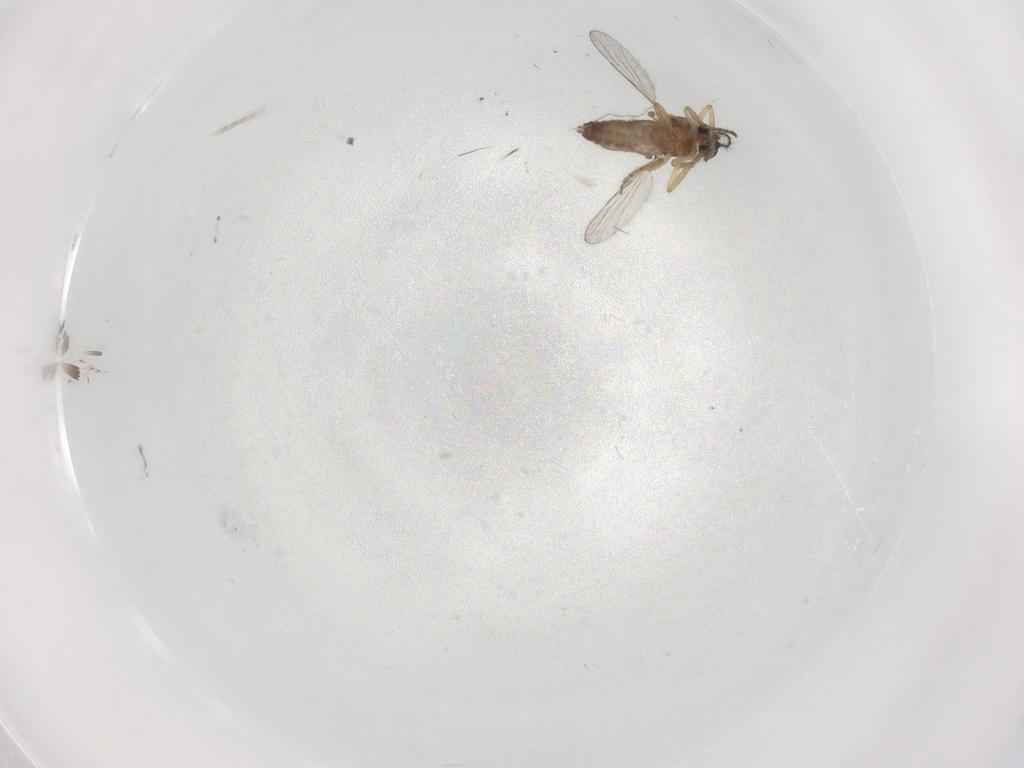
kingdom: Animalia
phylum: Arthropoda
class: Insecta
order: Diptera
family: Ceratopogonidae
